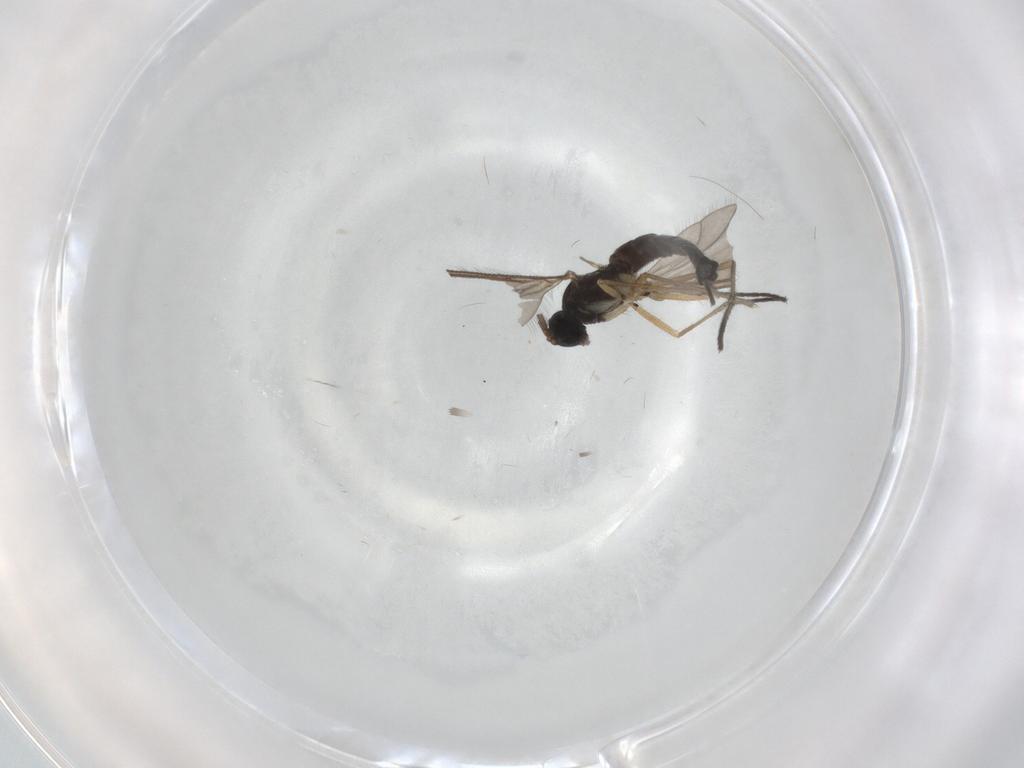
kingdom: Animalia
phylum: Arthropoda
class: Insecta
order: Diptera
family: Sciaridae
